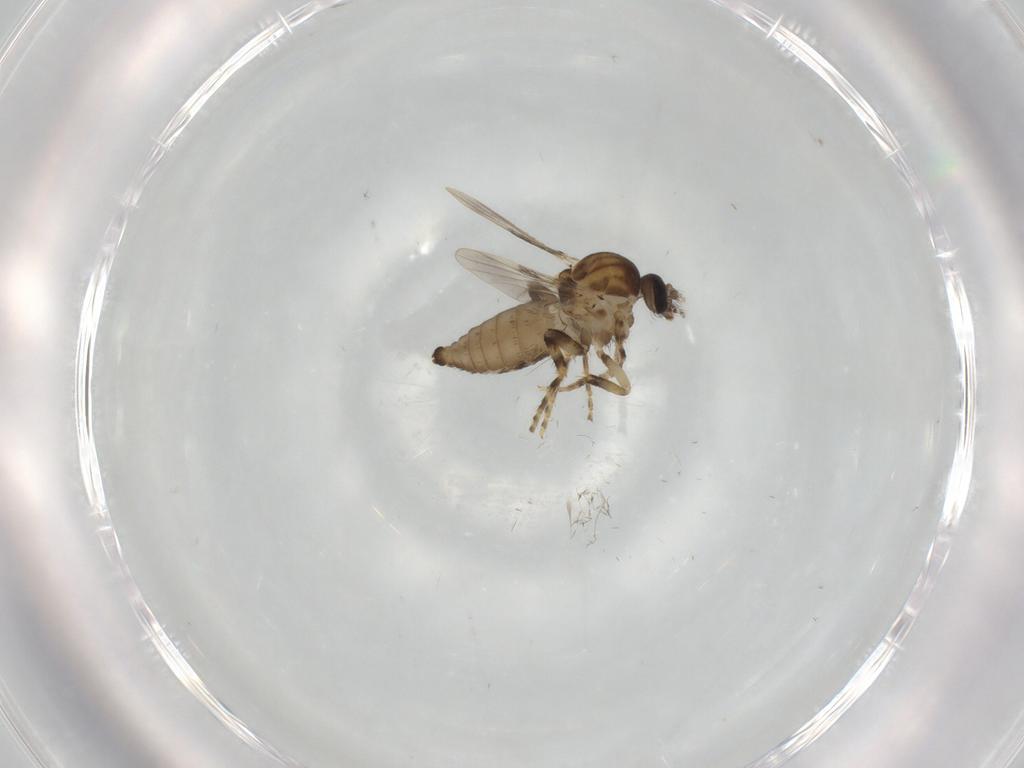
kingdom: Animalia
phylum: Arthropoda
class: Insecta
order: Diptera
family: Ceratopogonidae
